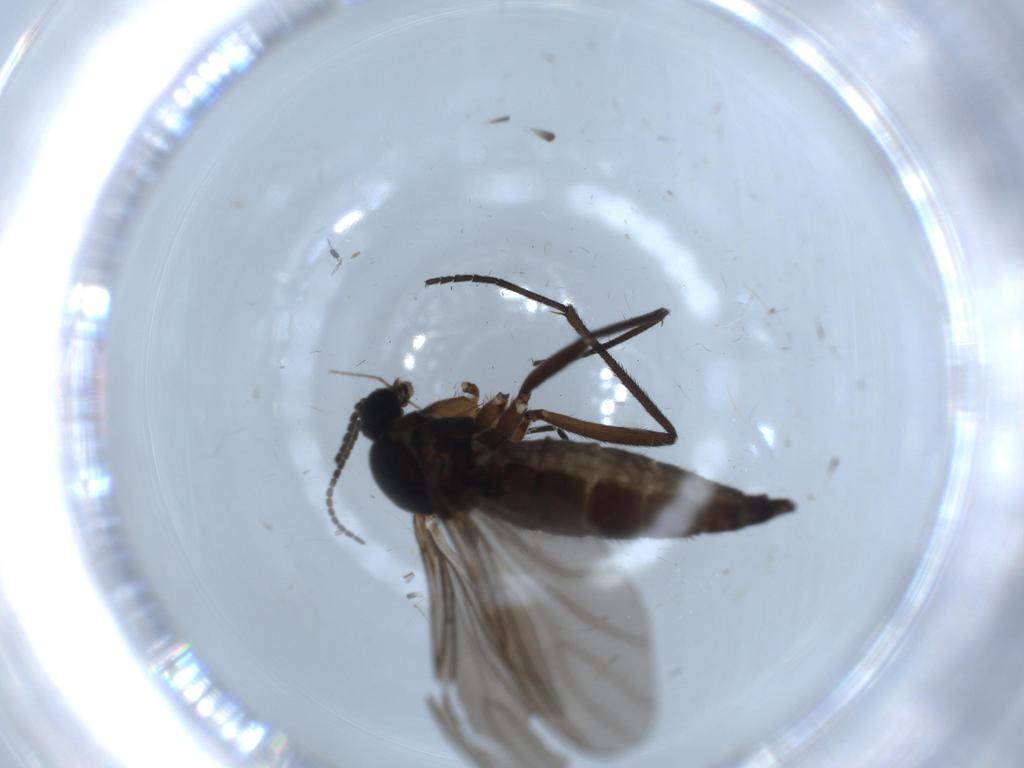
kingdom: Animalia
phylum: Arthropoda
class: Insecta
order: Diptera
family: Sciaridae
